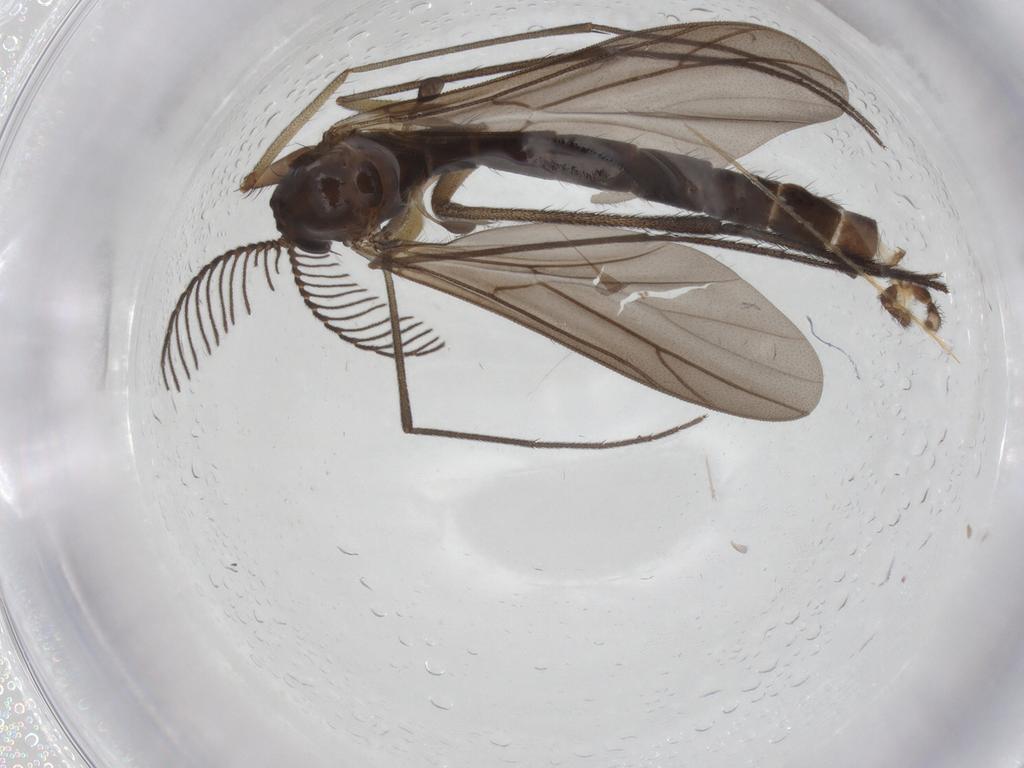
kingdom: Animalia
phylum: Arthropoda
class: Insecta
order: Diptera
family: Ditomyiidae
